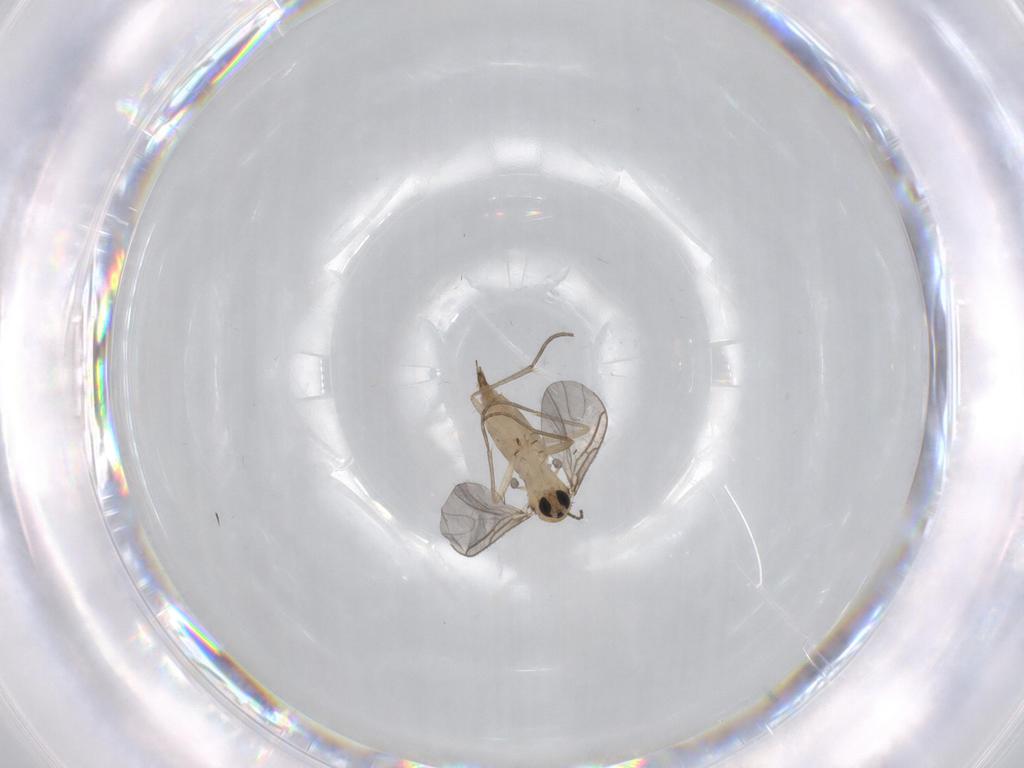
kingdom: Animalia
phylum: Arthropoda
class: Insecta
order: Diptera
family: Sciaridae
